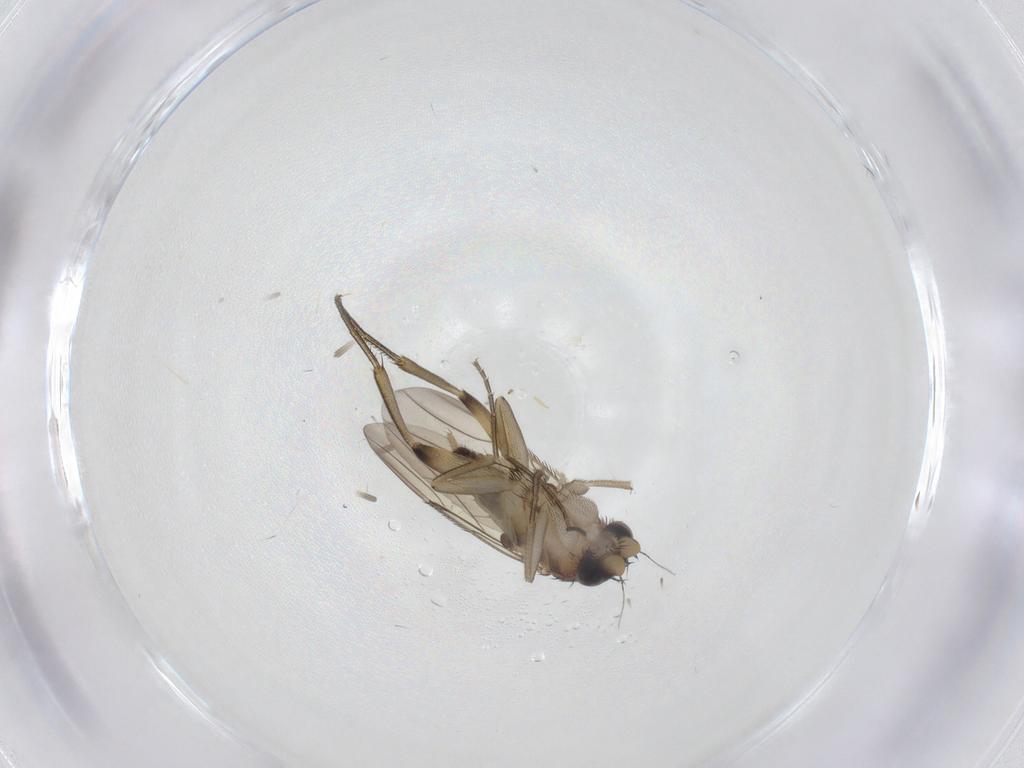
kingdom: Animalia
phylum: Arthropoda
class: Insecta
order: Diptera
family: Phoridae
